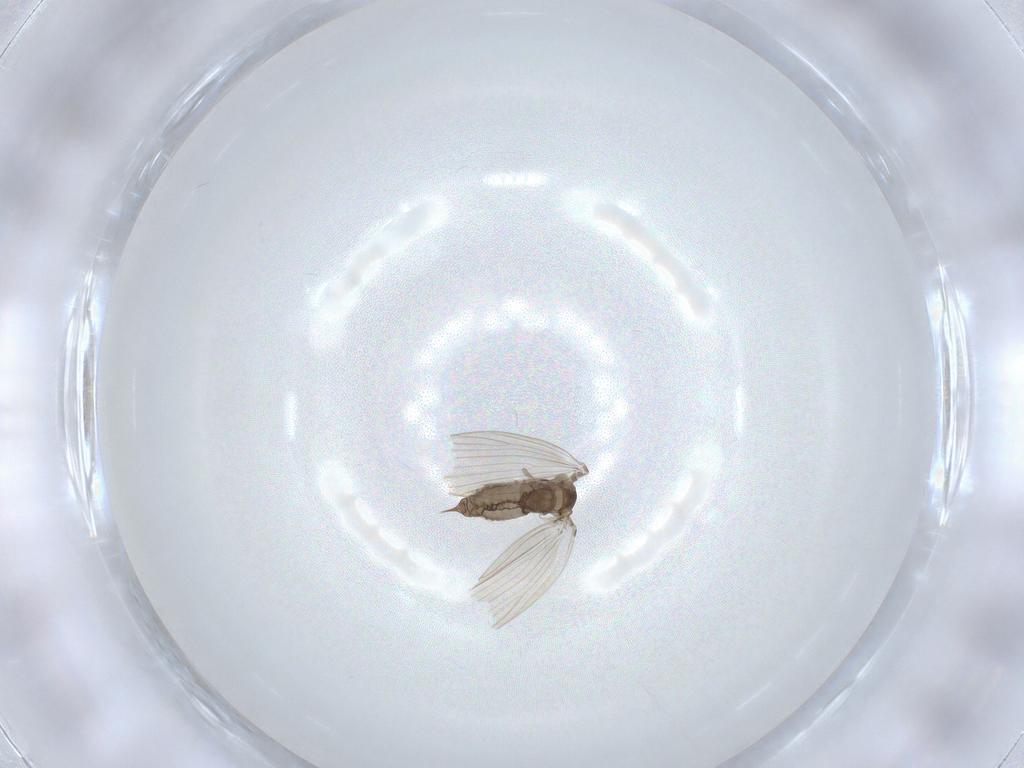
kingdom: Animalia
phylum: Arthropoda
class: Insecta
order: Diptera
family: Psychodidae
